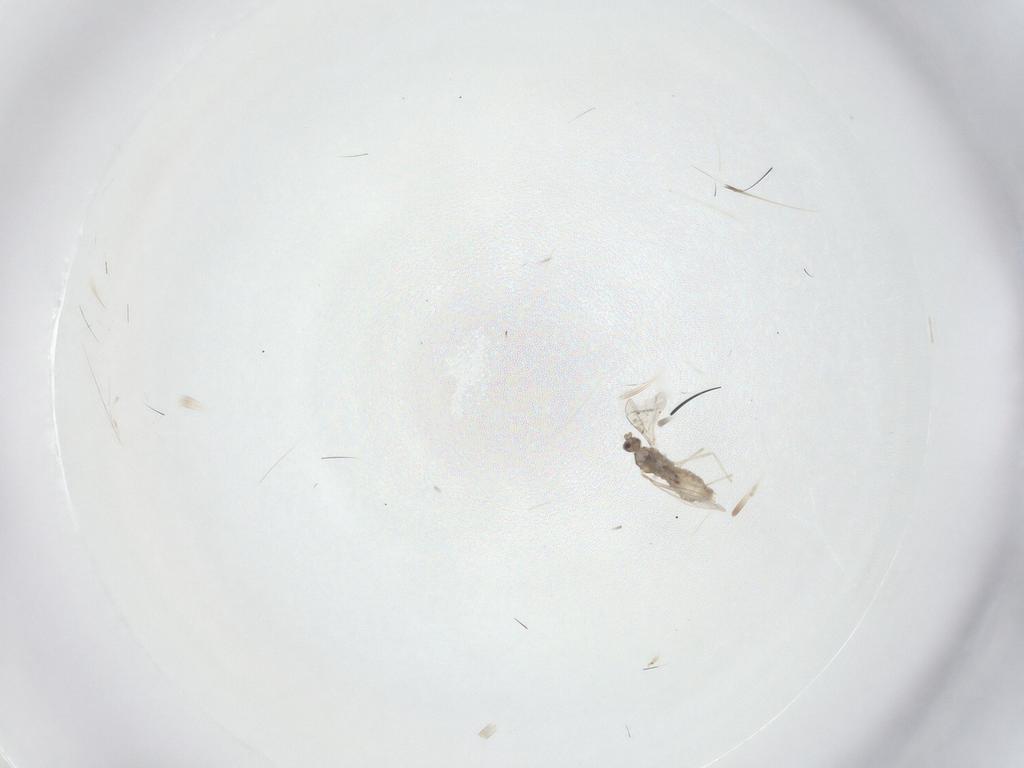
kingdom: Animalia
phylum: Arthropoda
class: Insecta
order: Diptera
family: Cecidomyiidae
